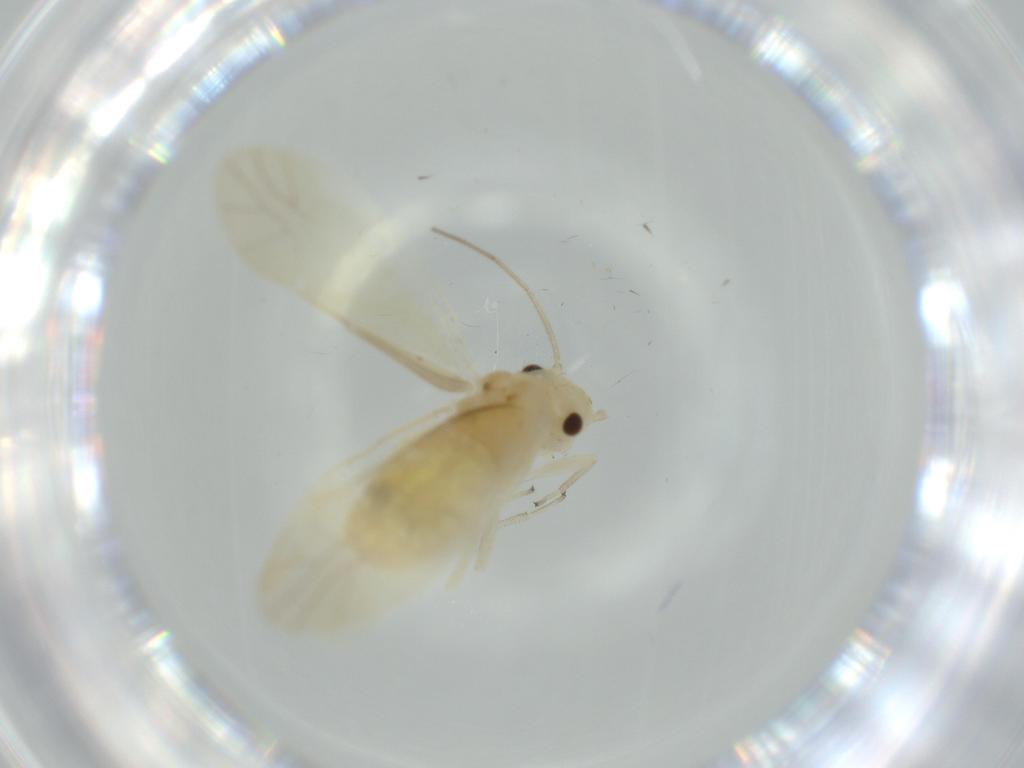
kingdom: Animalia
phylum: Arthropoda
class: Insecta
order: Psocodea
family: Caeciliusidae
